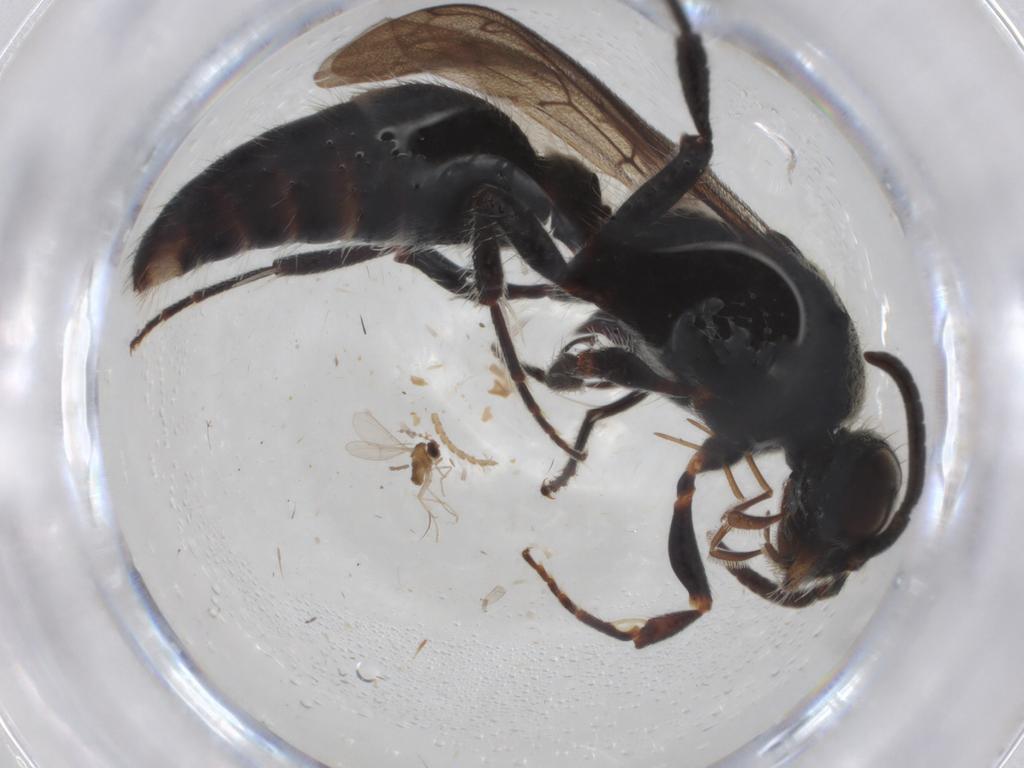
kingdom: Animalia
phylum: Arthropoda
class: Insecta
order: Diptera
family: Cecidomyiidae
